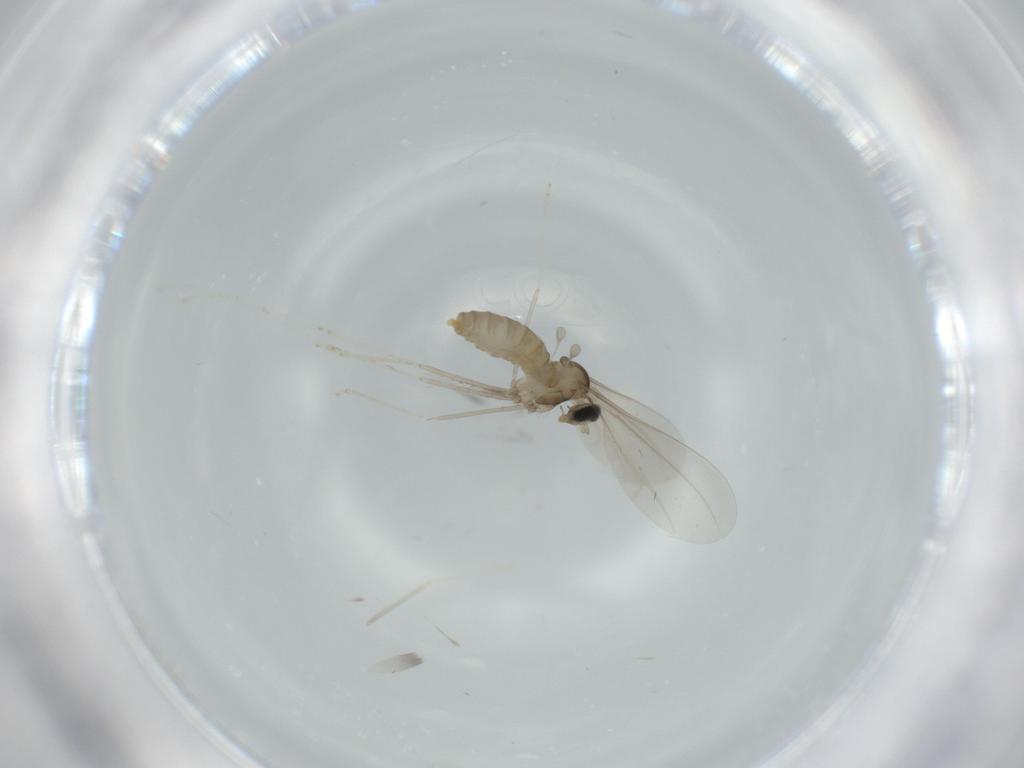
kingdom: Animalia
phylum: Arthropoda
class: Insecta
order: Diptera
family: Cecidomyiidae
